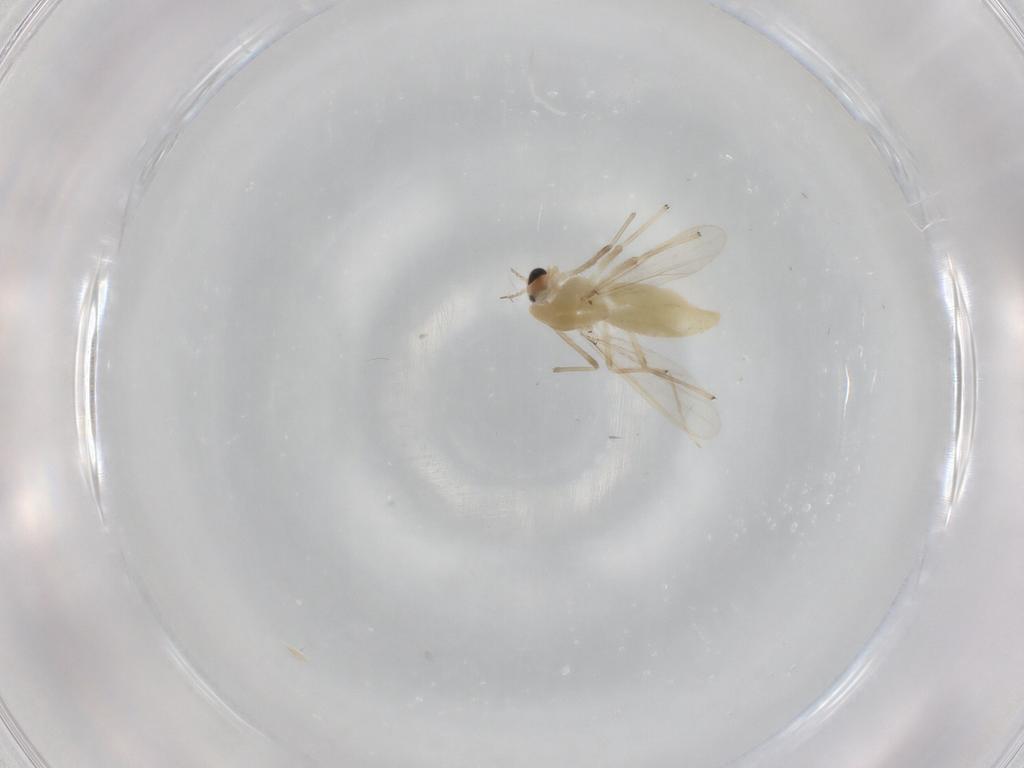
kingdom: Animalia
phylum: Arthropoda
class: Insecta
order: Diptera
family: Chironomidae
